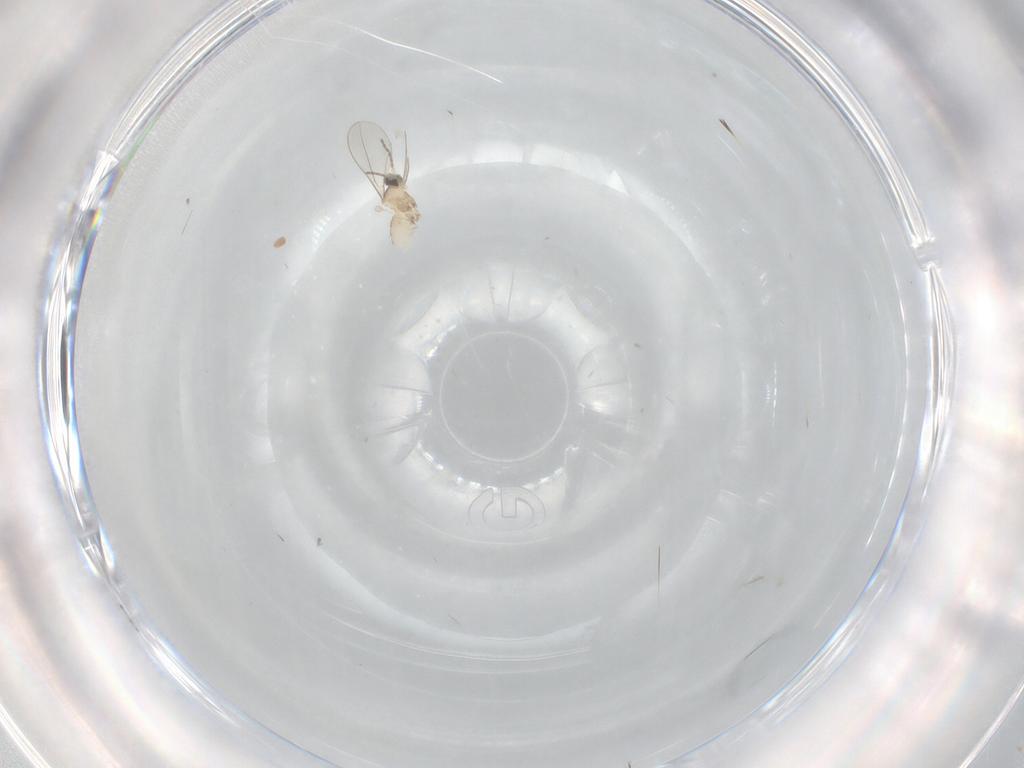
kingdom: Animalia
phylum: Arthropoda
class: Insecta
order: Diptera
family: Cecidomyiidae
